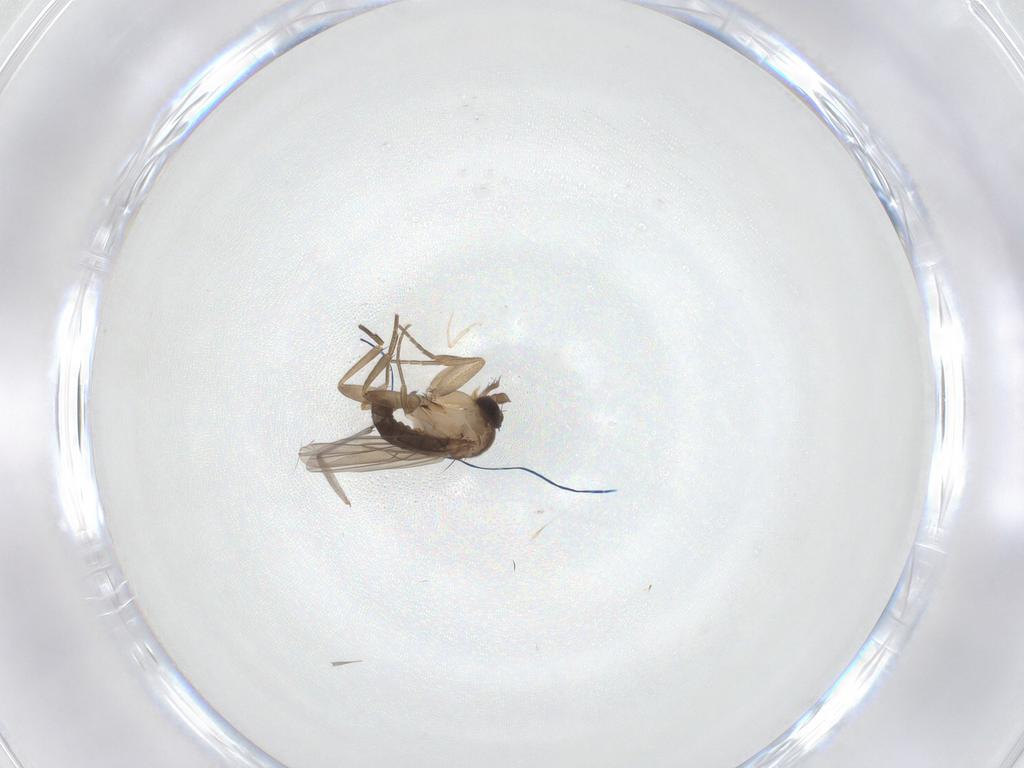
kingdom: Animalia
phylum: Arthropoda
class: Insecta
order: Diptera
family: Phoridae
